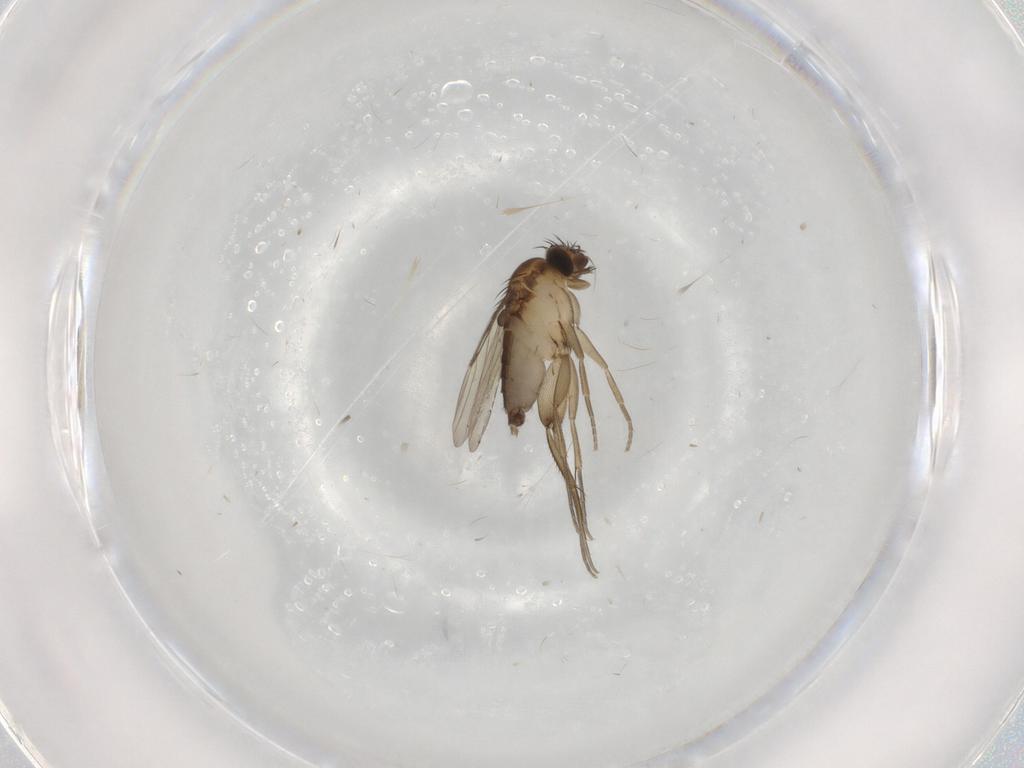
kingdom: Animalia
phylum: Arthropoda
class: Insecta
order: Diptera
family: Phoridae
